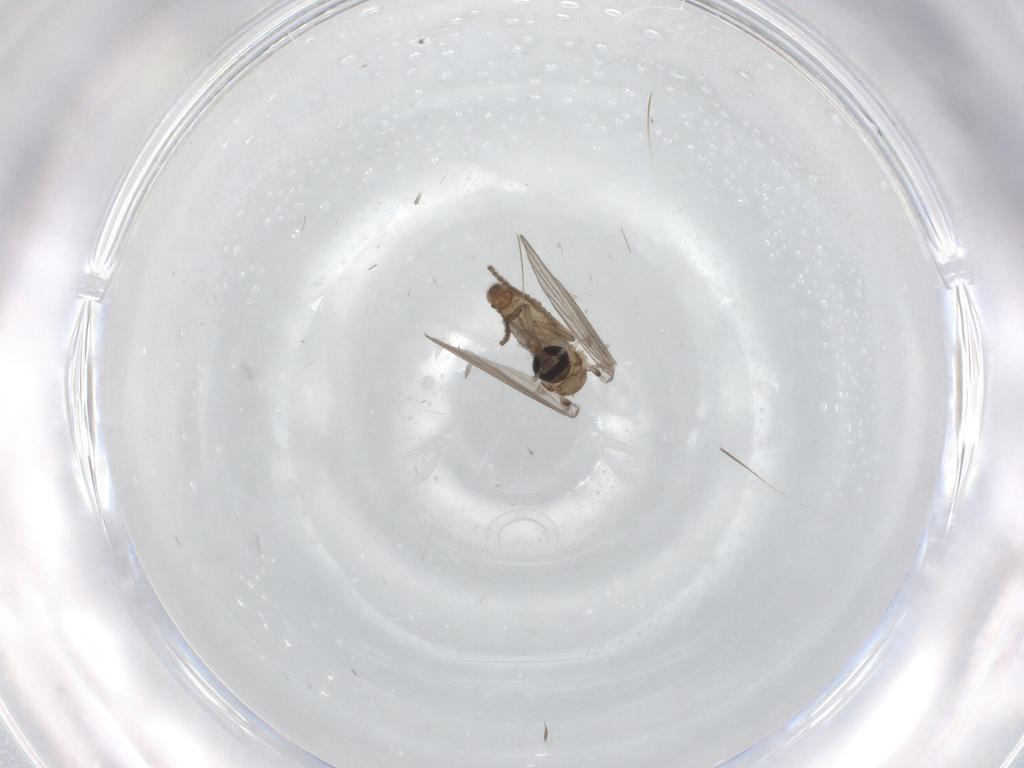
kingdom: Animalia
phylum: Arthropoda
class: Insecta
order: Diptera
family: Psychodidae
